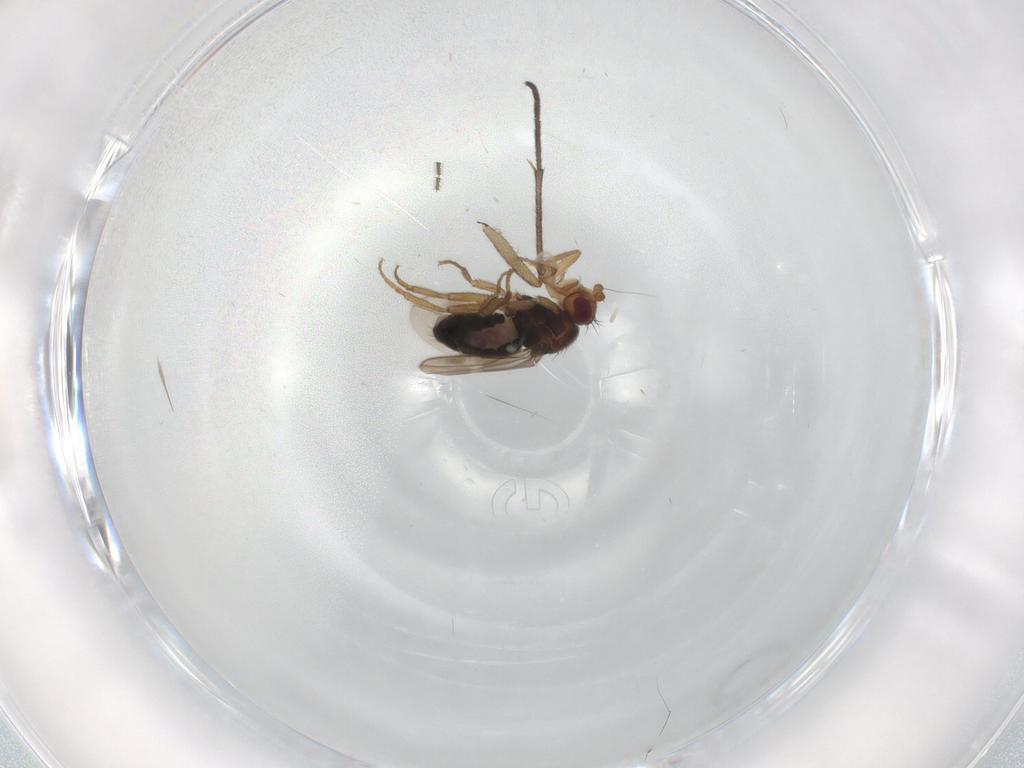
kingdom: Animalia
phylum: Arthropoda
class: Insecta
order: Diptera
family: Sphaeroceridae
